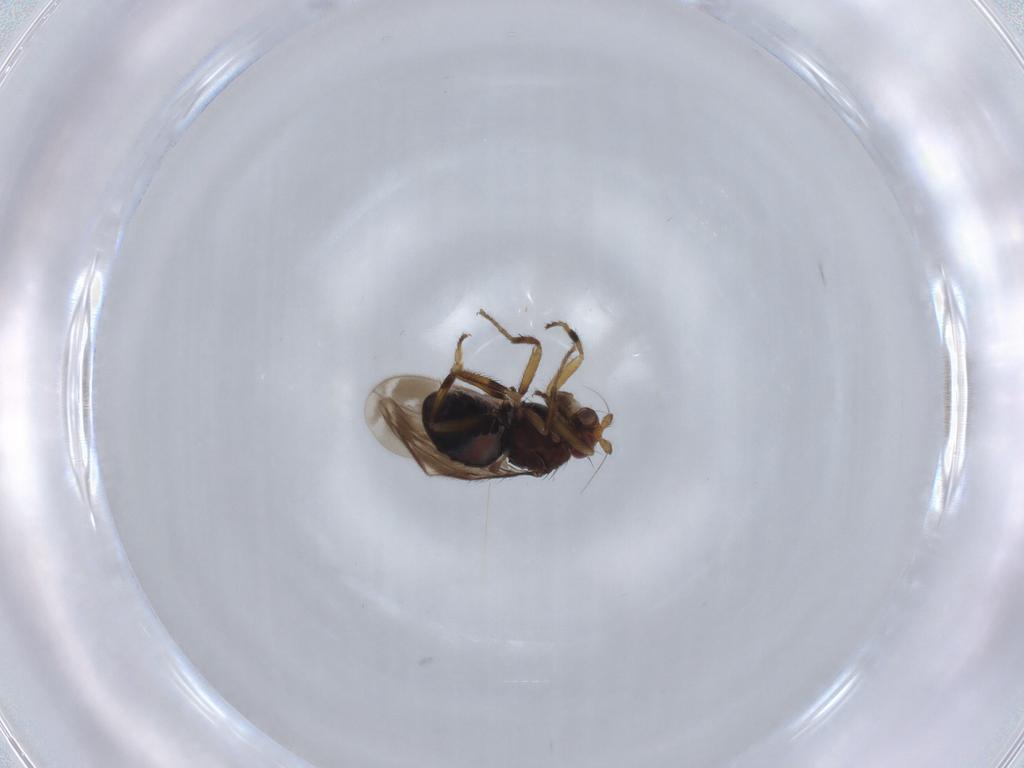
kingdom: Animalia
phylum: Arthropoda
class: Insecta
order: Diptera
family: Sphaeroceridae
